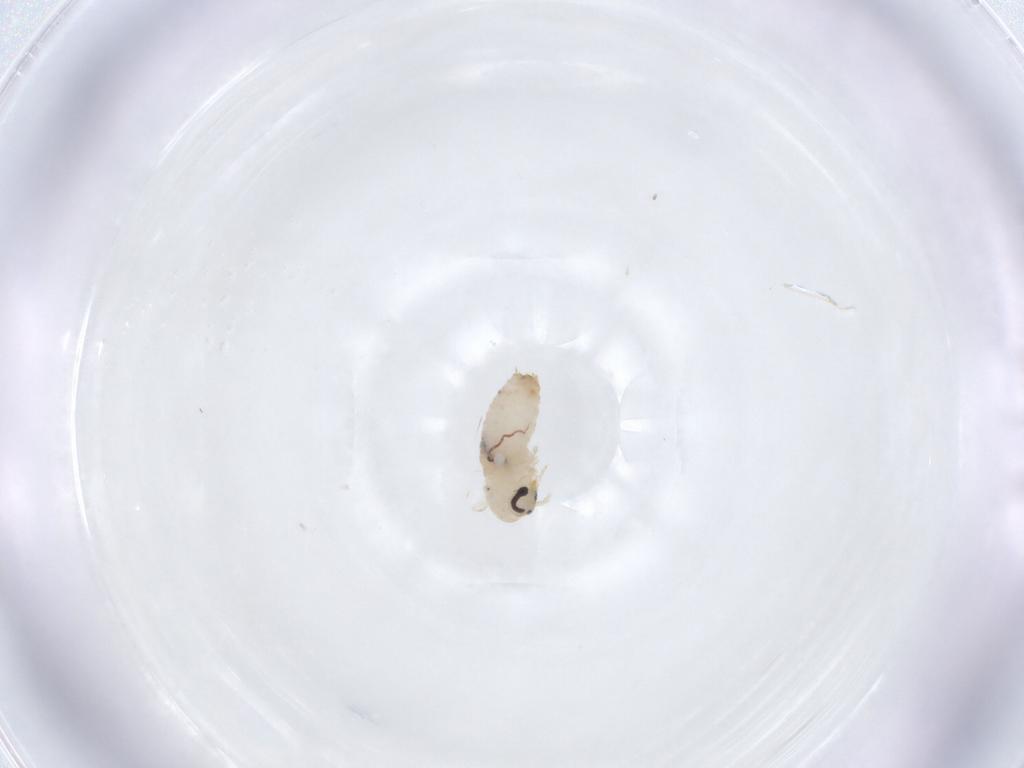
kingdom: Animalia
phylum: Arthropoda
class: Insecta
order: Diptera
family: Psychodidae
